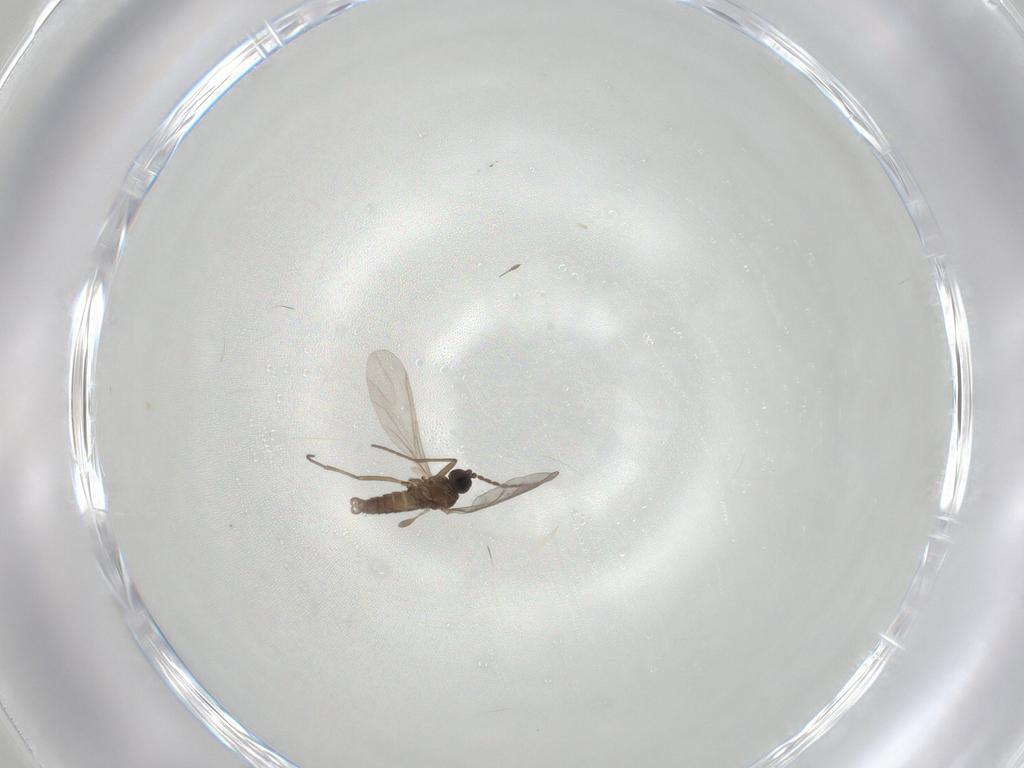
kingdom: Animalia
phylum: Arthropoda
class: Insecta
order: Diptera
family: Sciaridae
